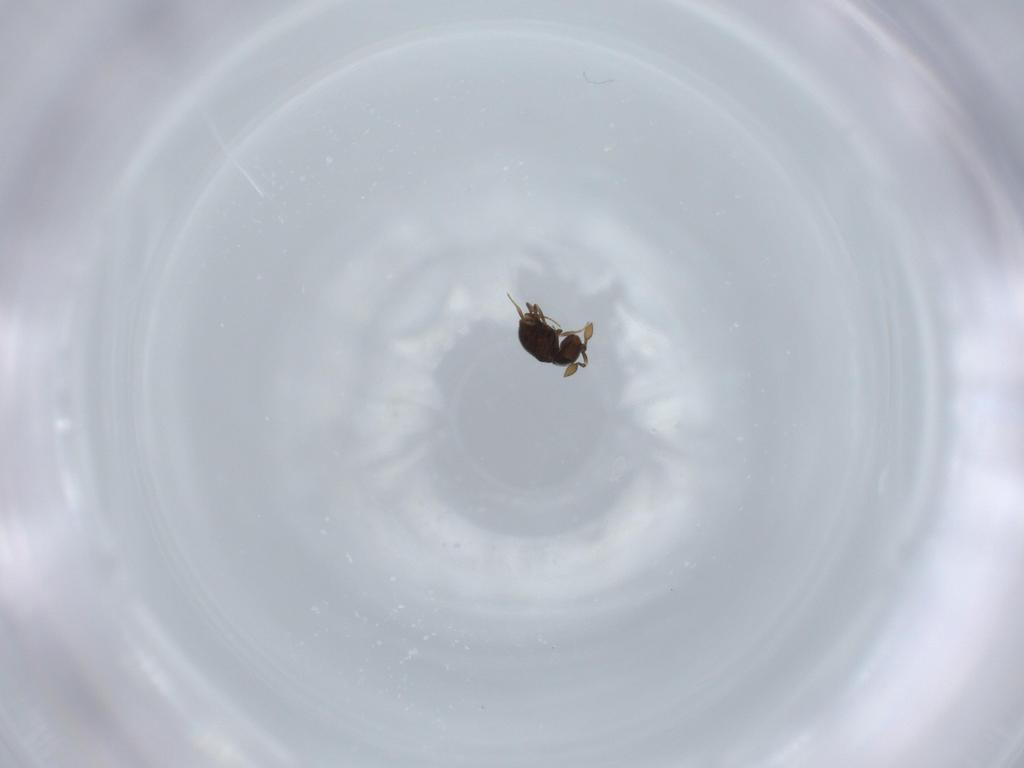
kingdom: Animalia
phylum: Arthropoda
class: Insecta
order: Hymenoptera
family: Scelionidae
